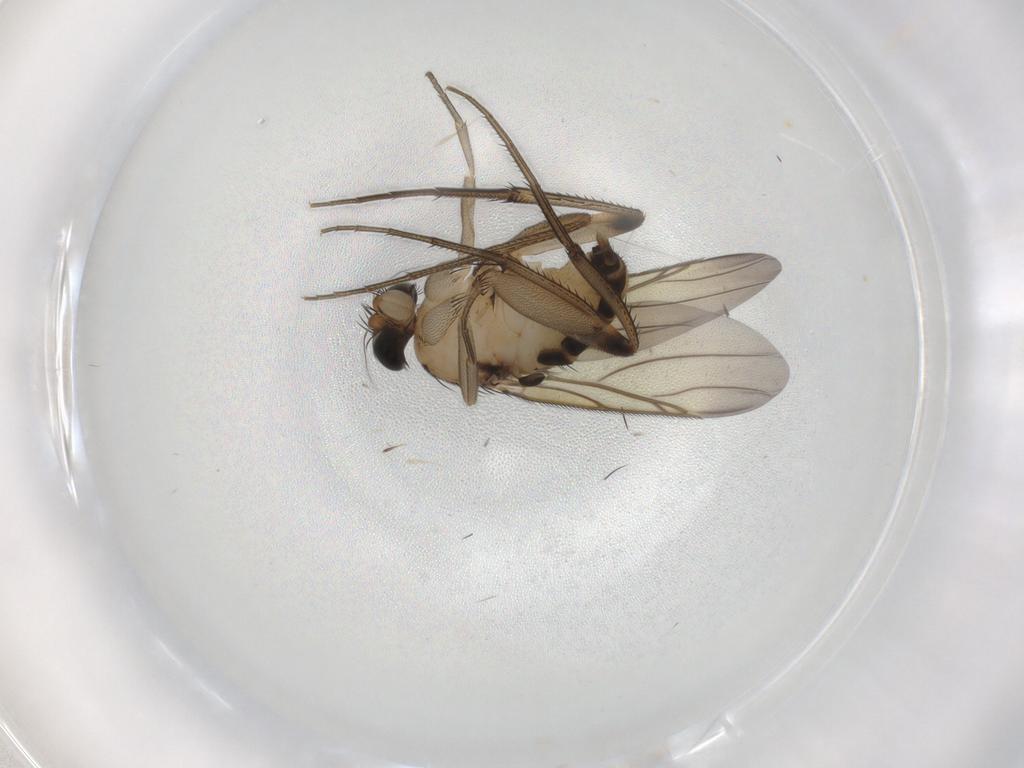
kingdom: Animalia
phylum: Arthropoda
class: Insecta
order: Diptera
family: Phoridae
